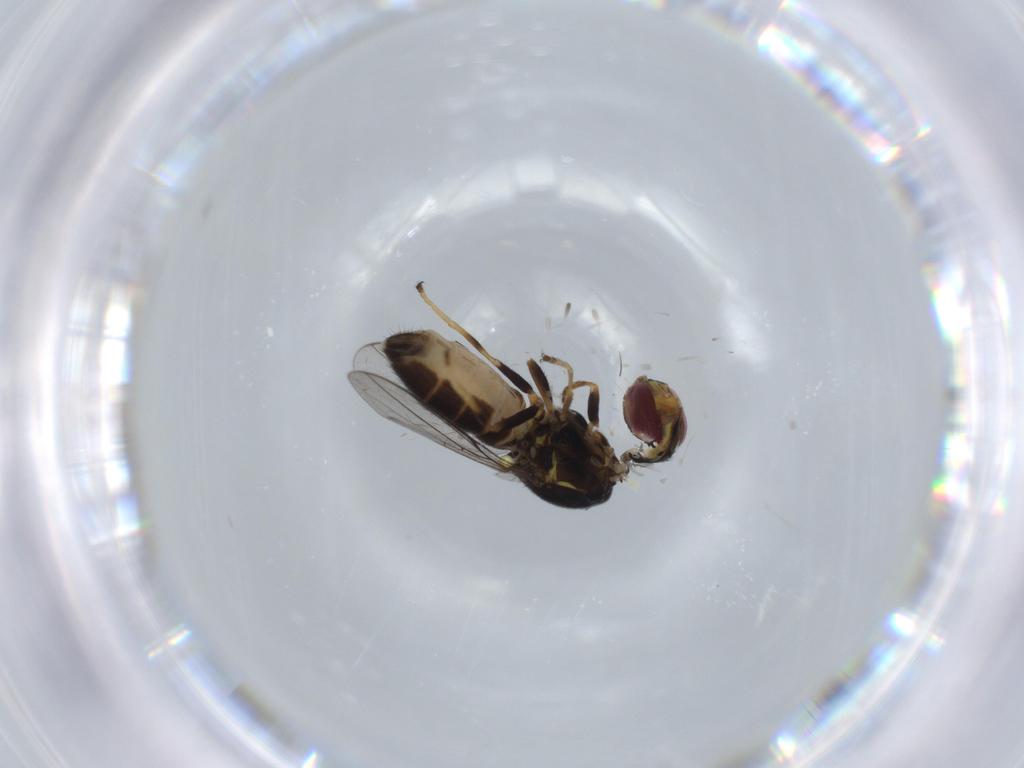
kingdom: Animalia
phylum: Arthropoda
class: Insecta
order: Diptera
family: Chloropidae
